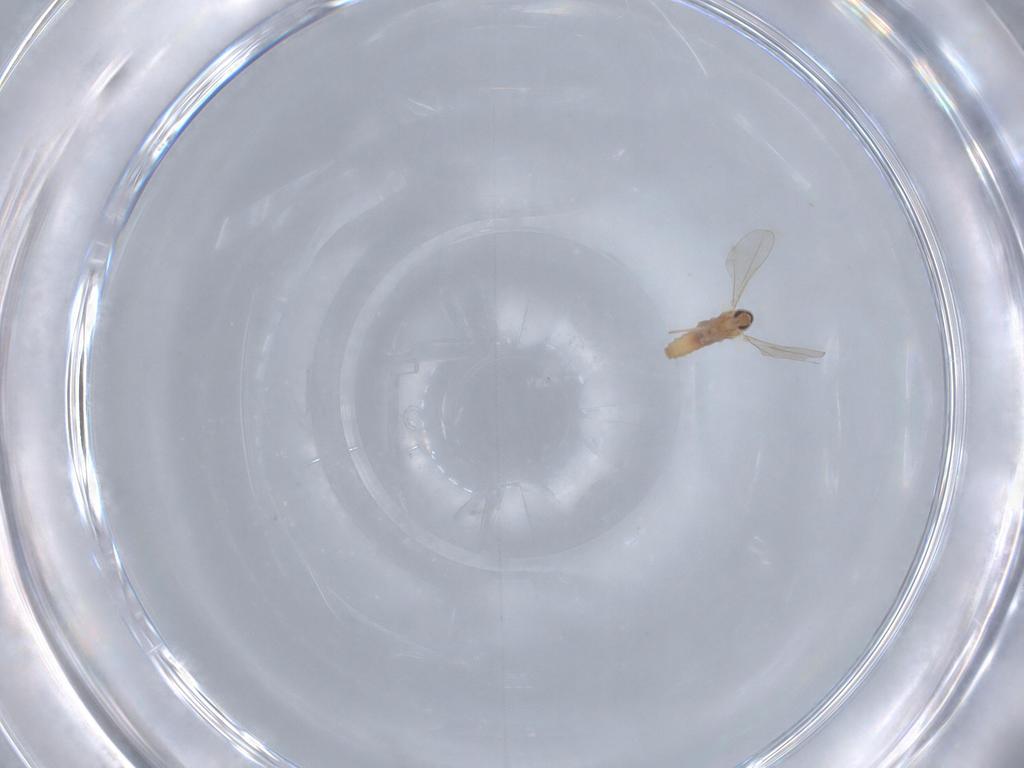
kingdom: Animalia
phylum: Arthropoda
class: Insecta
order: Diptera
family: Cecidomyiidae
